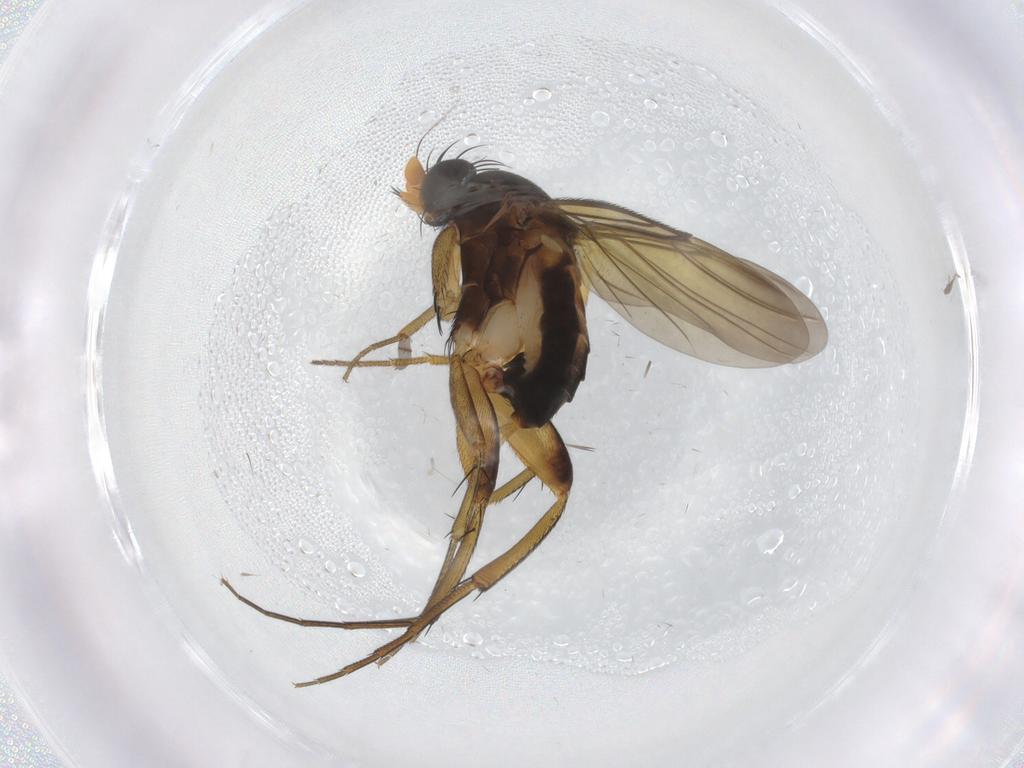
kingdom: Animalia
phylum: Arthropoda
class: Insecta
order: Diptera
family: Phoridae
